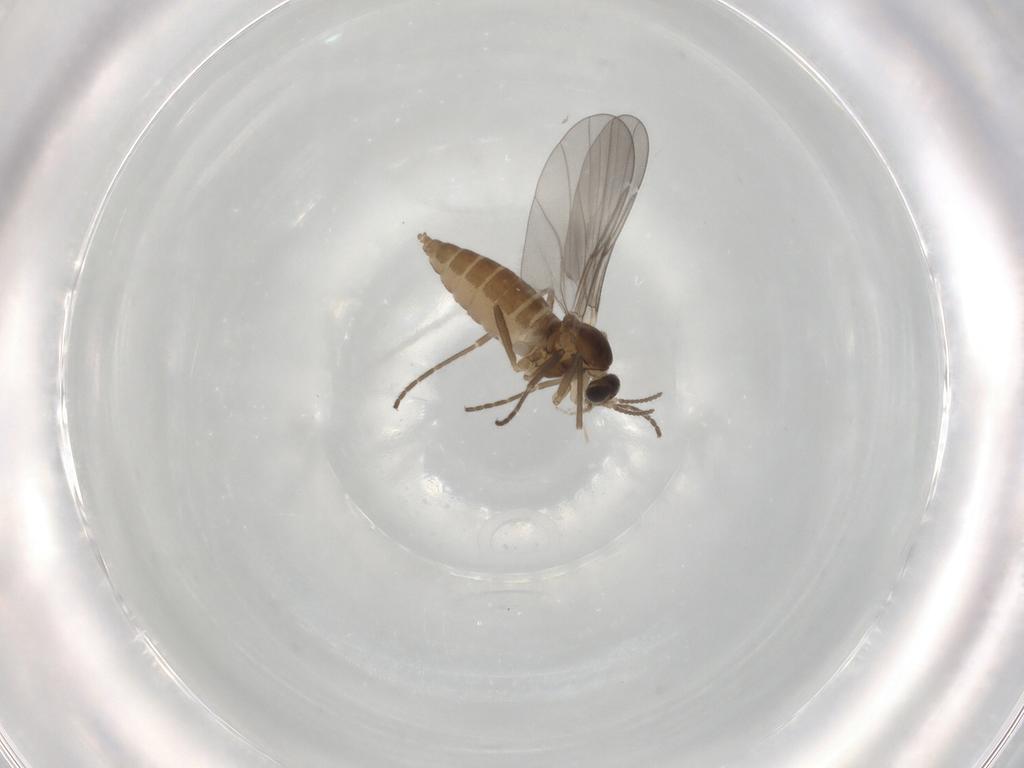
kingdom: Animalia
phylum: Arthropoda
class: Insecta
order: Diptera
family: Cecidomyiidae
